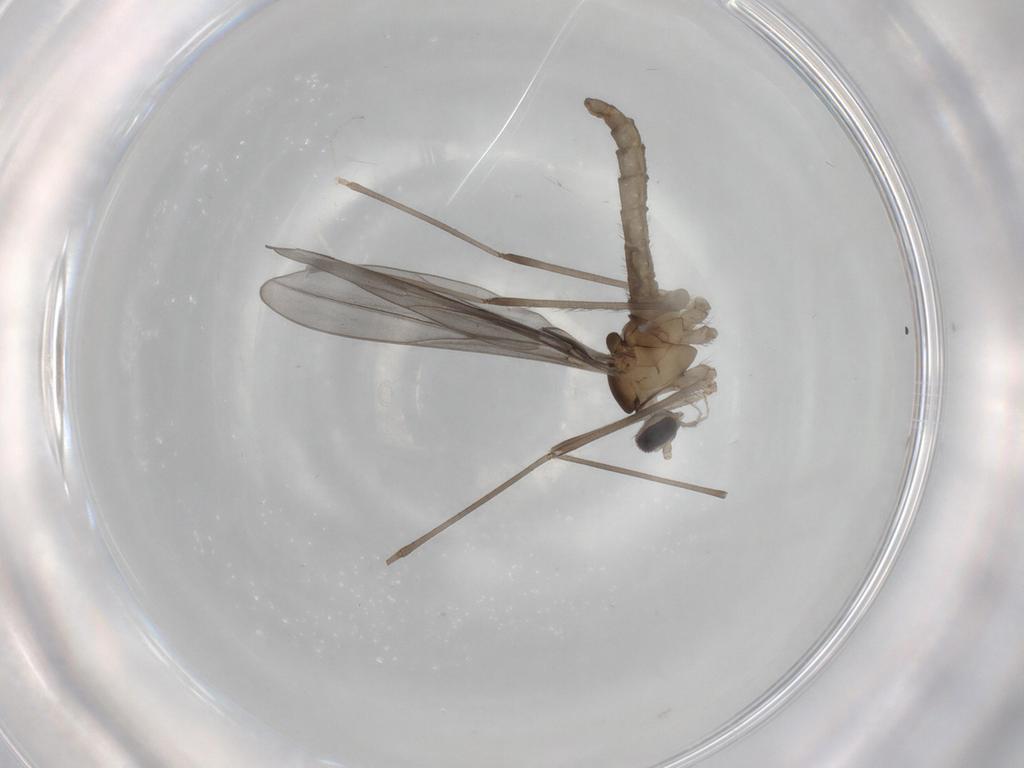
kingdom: Animalia
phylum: Arthropoda
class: Insecta
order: Diptera
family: Cecidomyiidae
